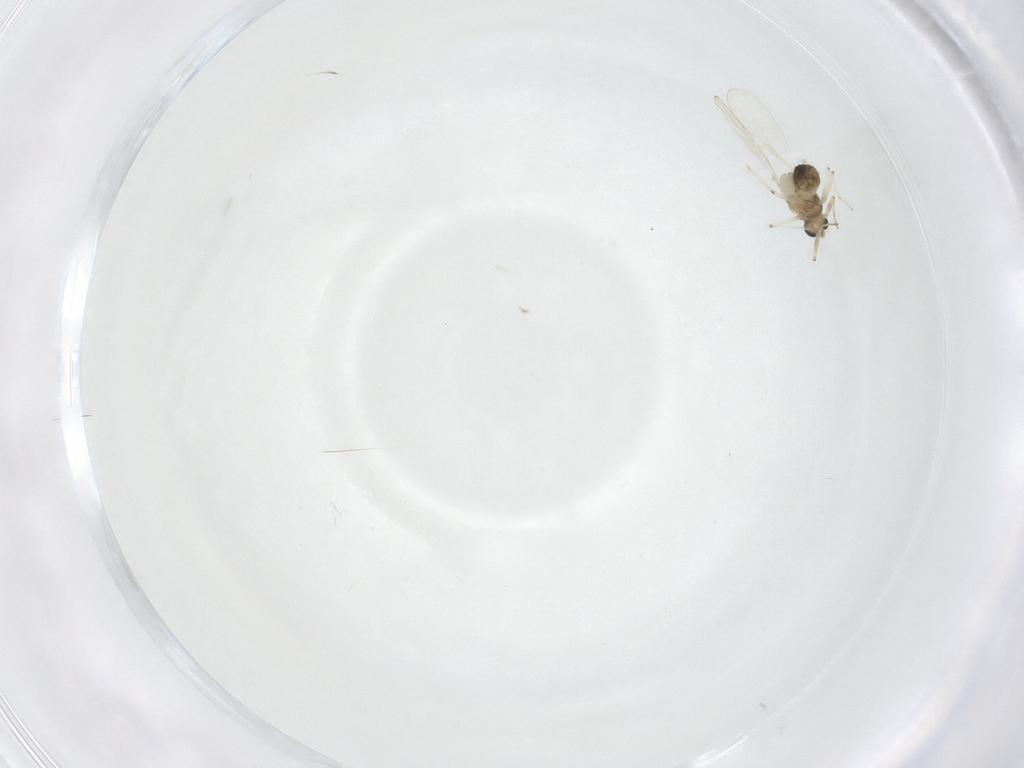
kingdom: Animalia
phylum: Arthropoda
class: Insecta
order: Diptera
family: Chironomidae
